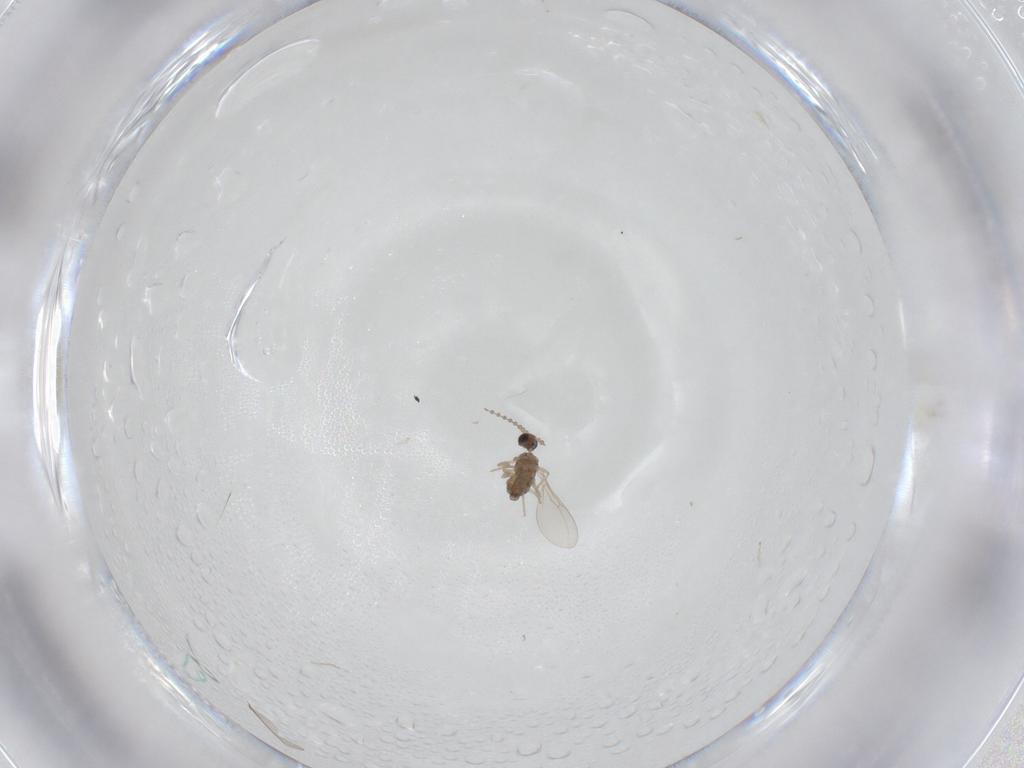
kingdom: Animalia
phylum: Arthropoda
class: Insecta
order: Diptera
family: Cecidomyiidae
